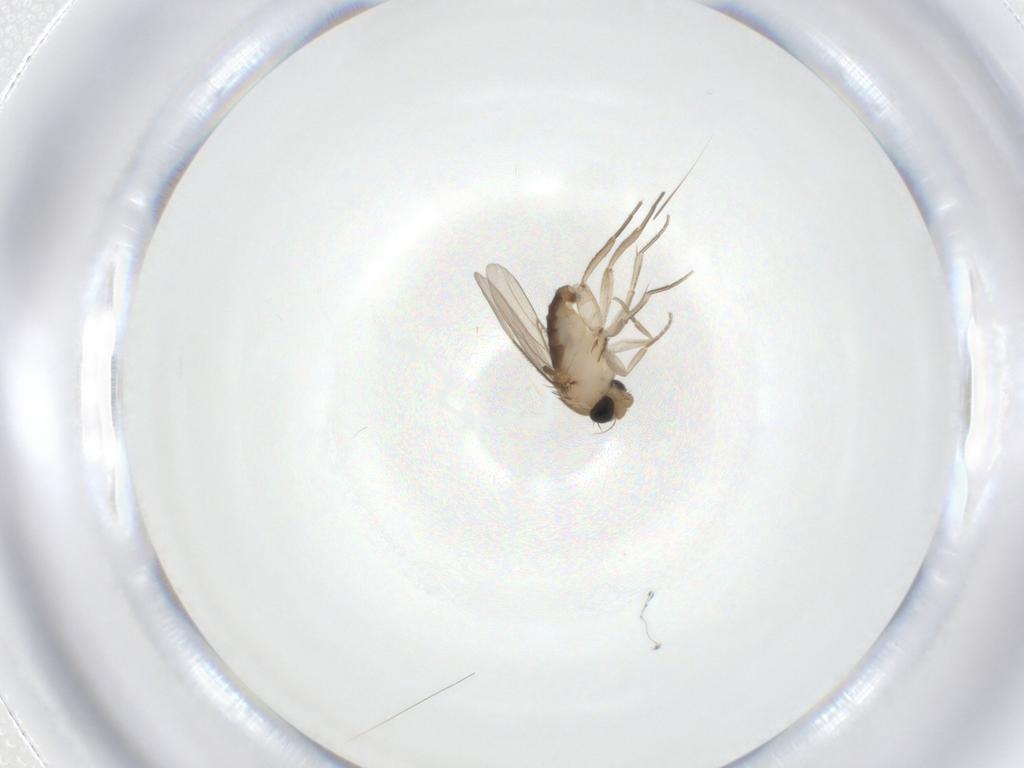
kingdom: Animalia
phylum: Arthropoda
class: Insecta
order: Diptera
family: Phoridae
